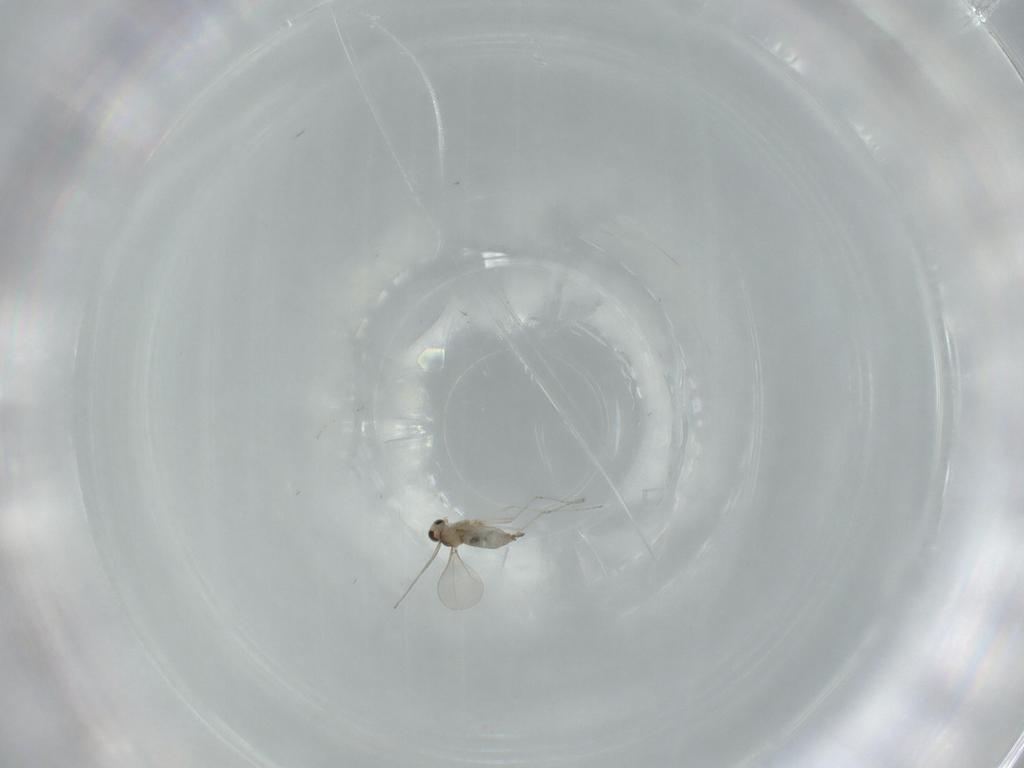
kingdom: Animalia
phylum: Arthropoda
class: Insecta
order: Diptera
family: Cecidomyiidae
